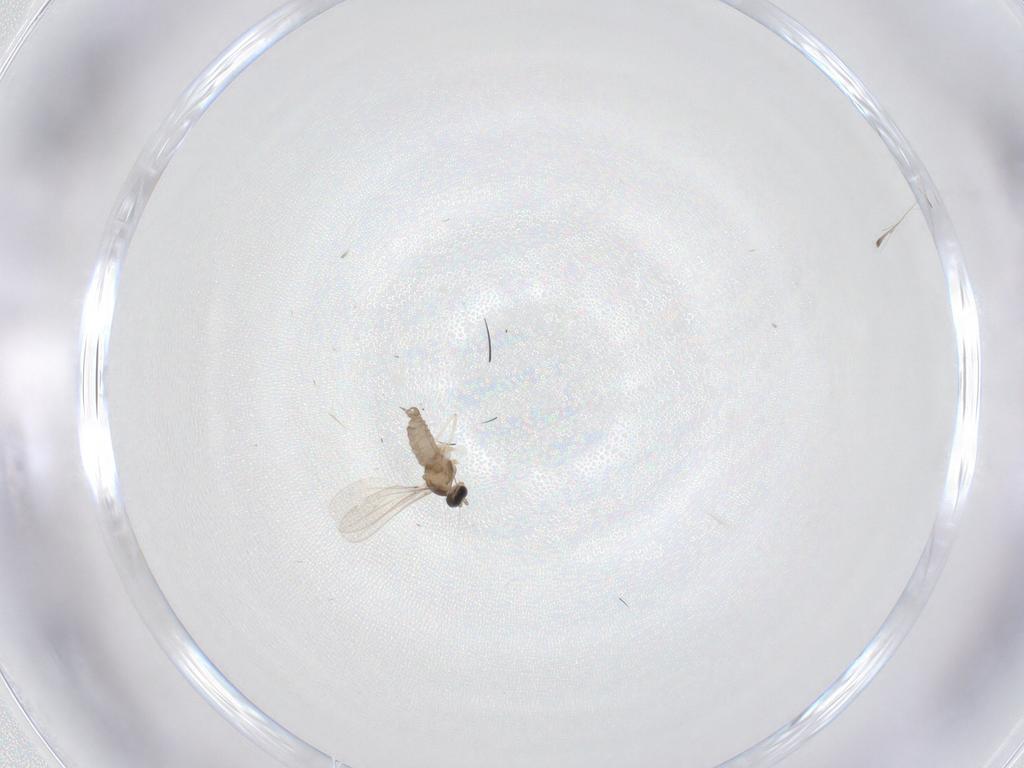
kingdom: Animalia
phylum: Arthropoda
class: Insecta
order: Diptera
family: Cecidomyiidae
